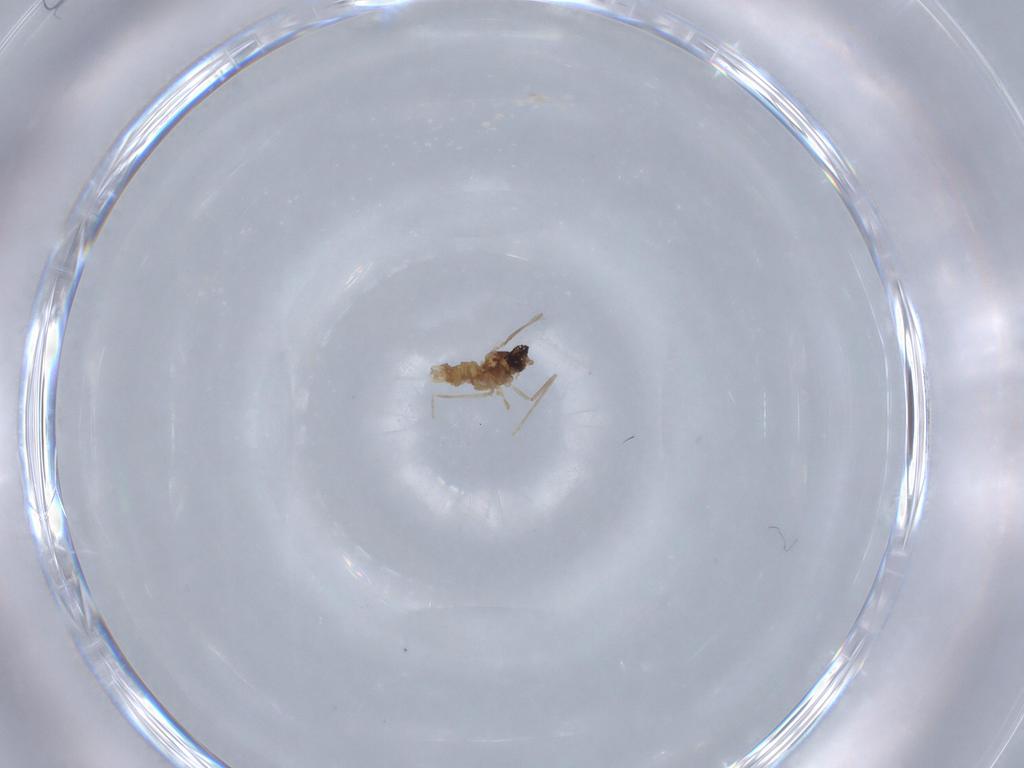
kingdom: Animalia
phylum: Arthropoda
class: Insecta
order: Diptera
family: Cecidomyiidae
